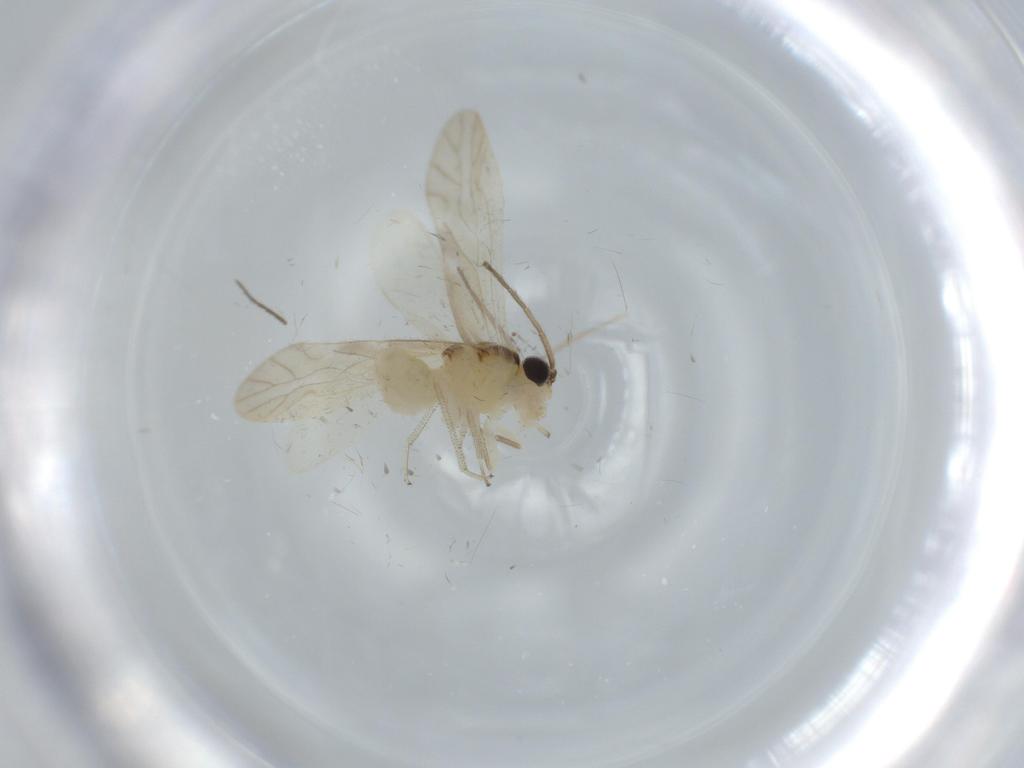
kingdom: Animalia
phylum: Arthropoda
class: Insecta
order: Psocodea
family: Caeciliusidae
